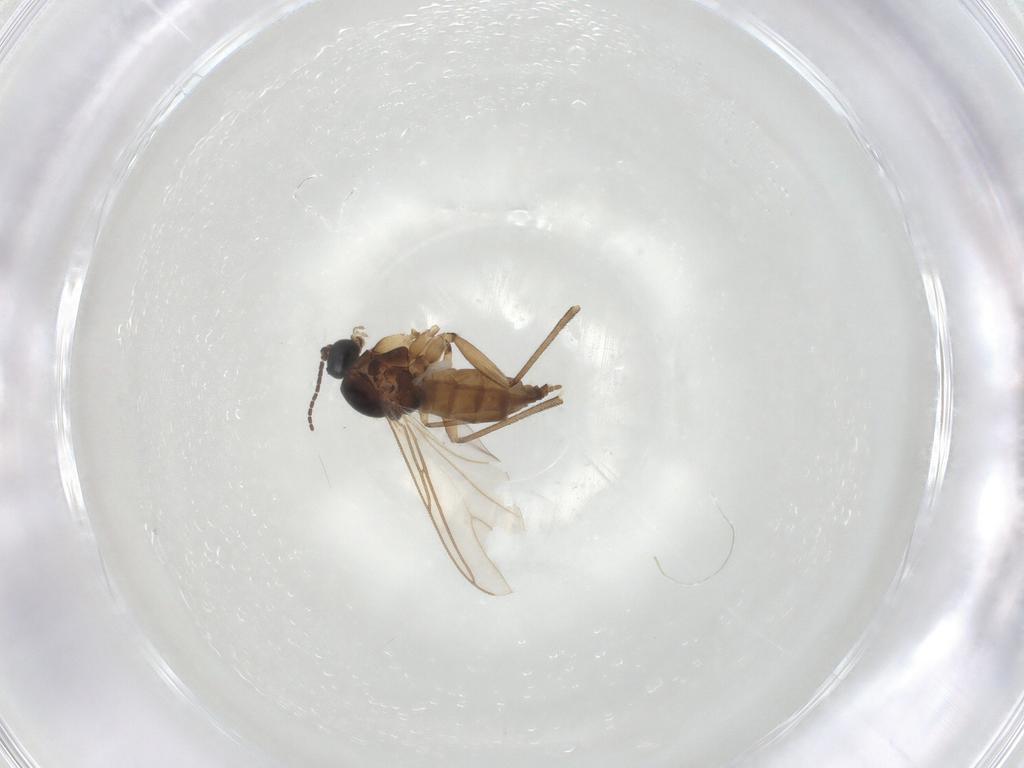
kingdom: Animalia
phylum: Arthropoda
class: Insecta
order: Diptera
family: Sciaridae
